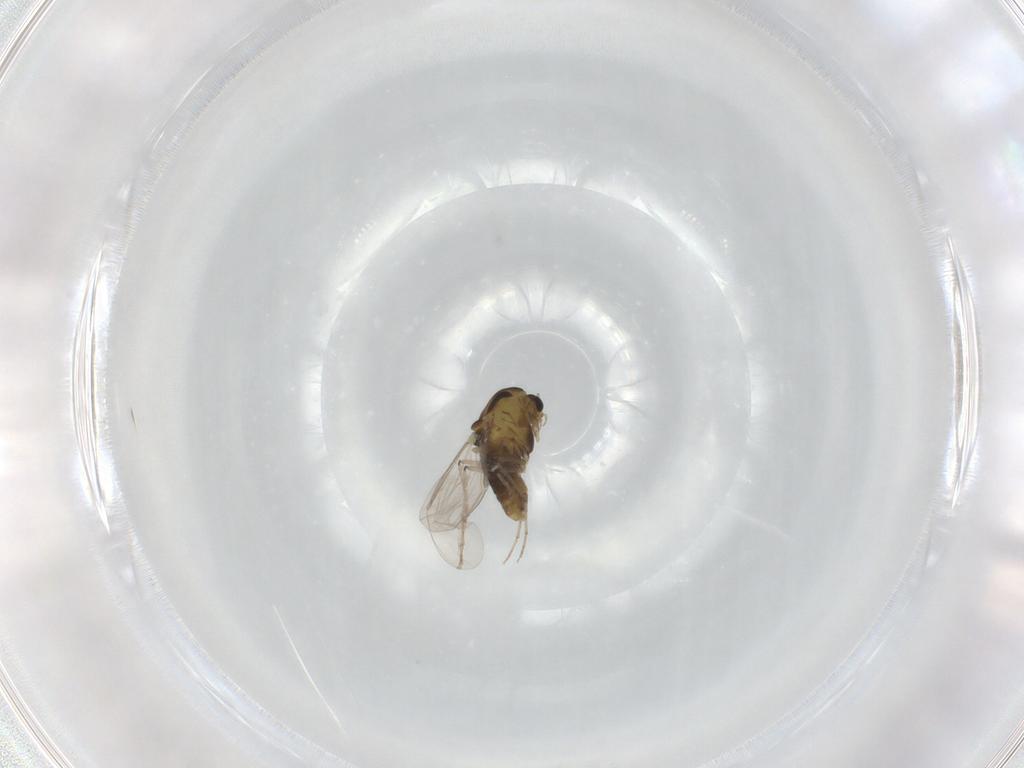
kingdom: Animalia
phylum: Arthropoda
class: Insecta
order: Diptera
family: Chironomidae
